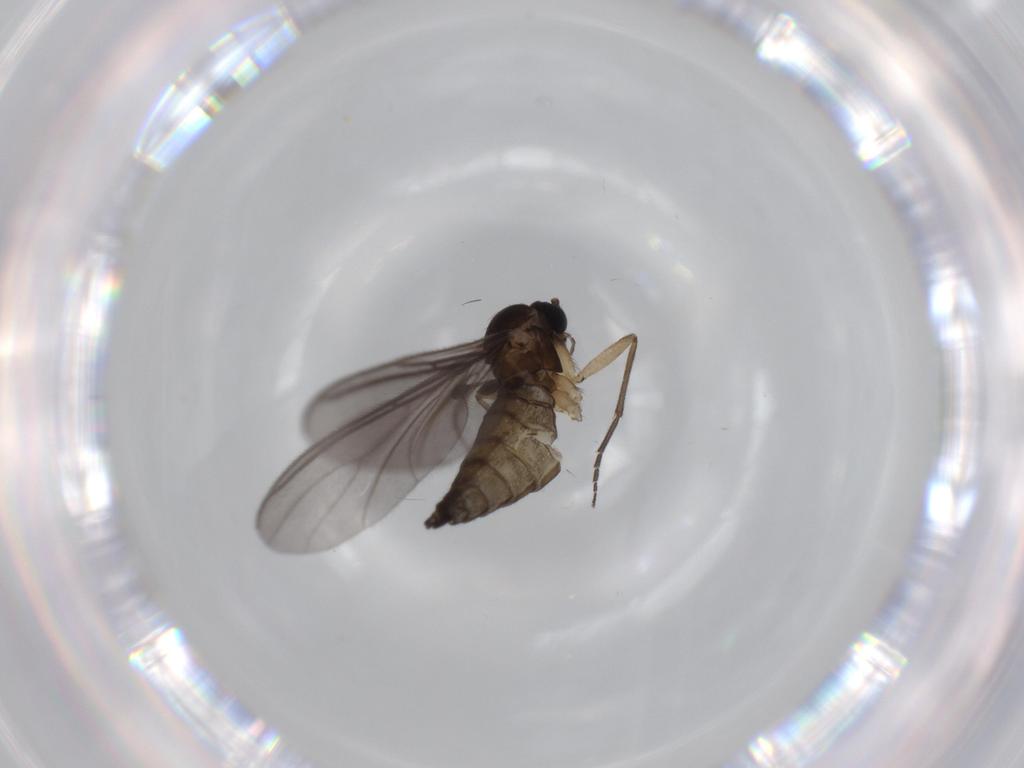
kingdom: Animalia
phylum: Arthropoda
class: Insecta
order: Diptera
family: Sciaridae
